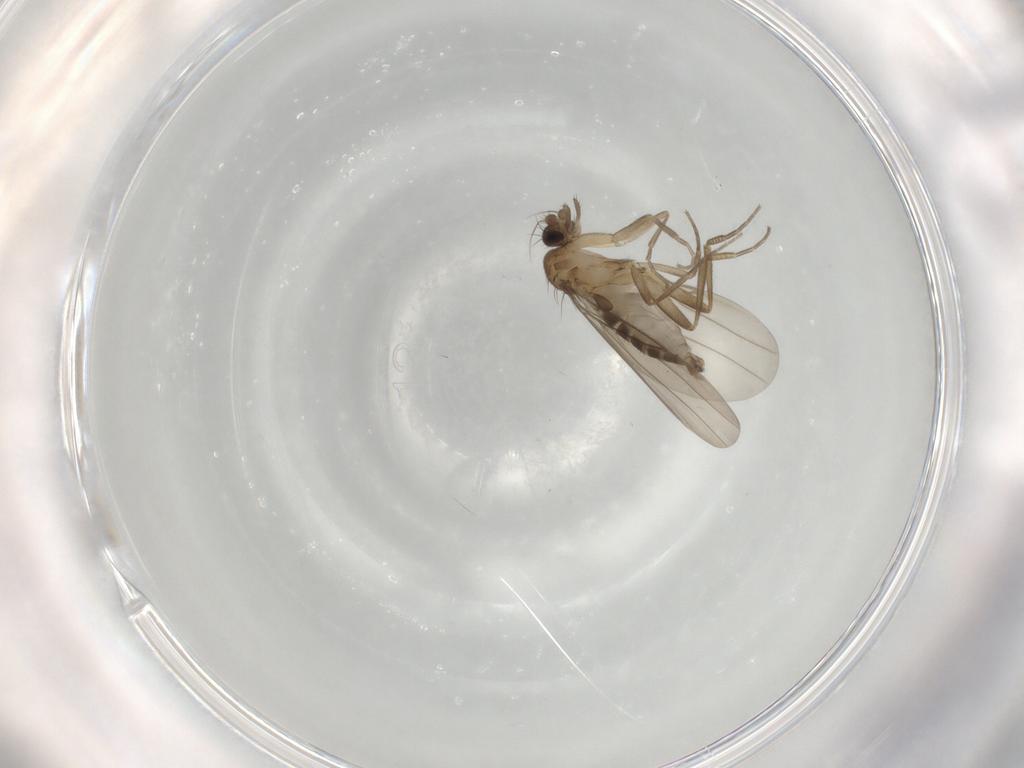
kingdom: Animalia
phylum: Arthropoda
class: Insecta
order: Diptera
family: Phoridae
